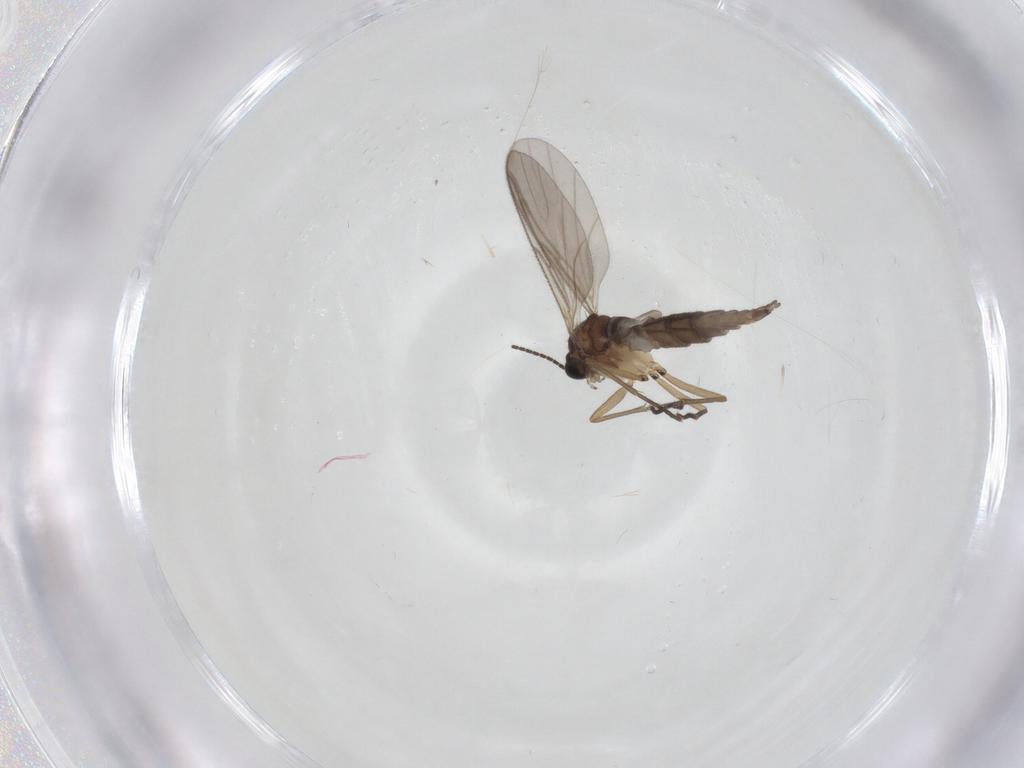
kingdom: Animalia
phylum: Arthropoda
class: Insecta
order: Diptera
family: Sciaridae
